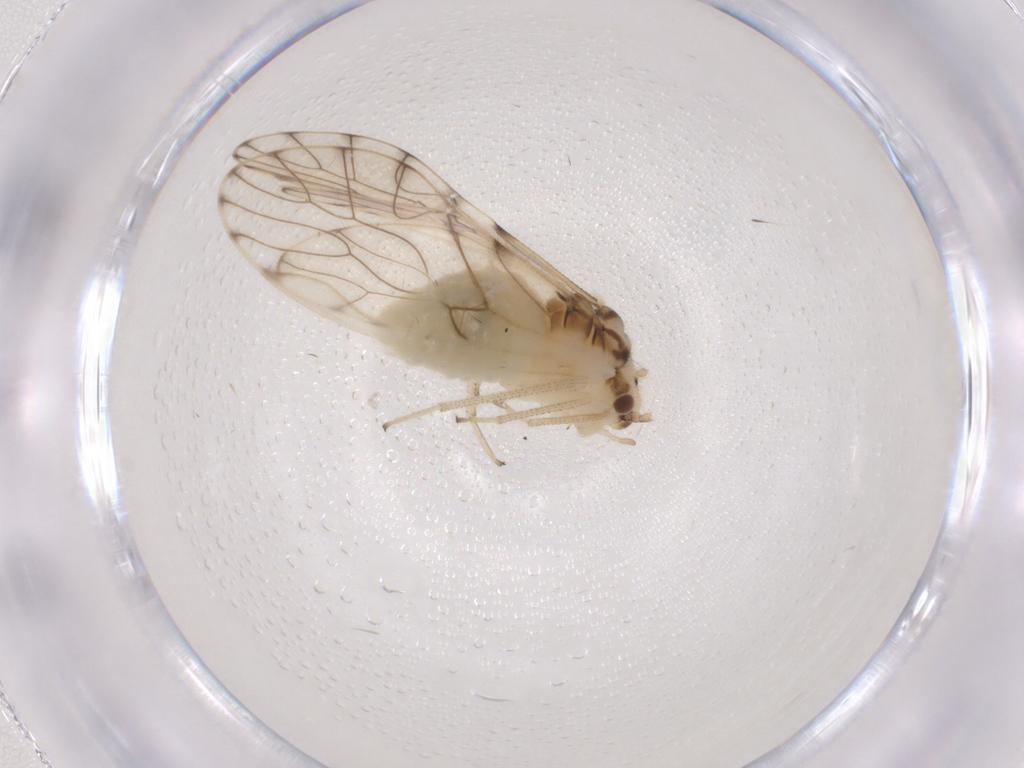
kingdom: Animalia
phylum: Arthropoda
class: Insecta
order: Psocodea
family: Philotarsidae
